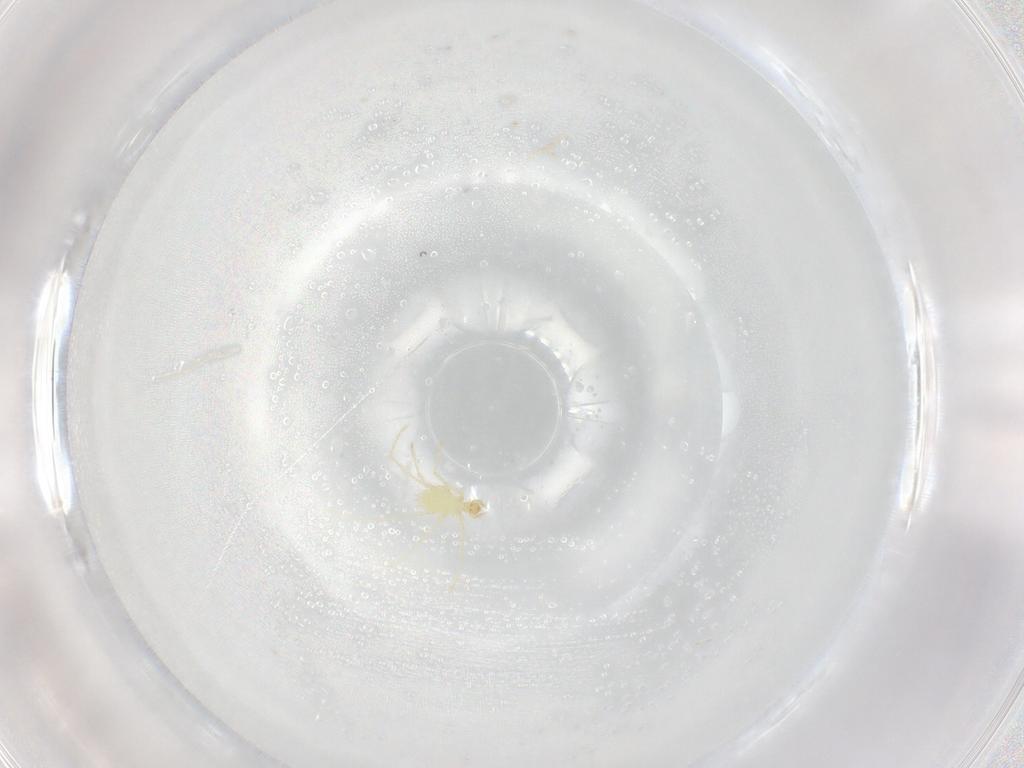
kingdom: Animalia
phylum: Arthropoda
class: Arachnida
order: Trombidiformes
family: Erythraeidae
